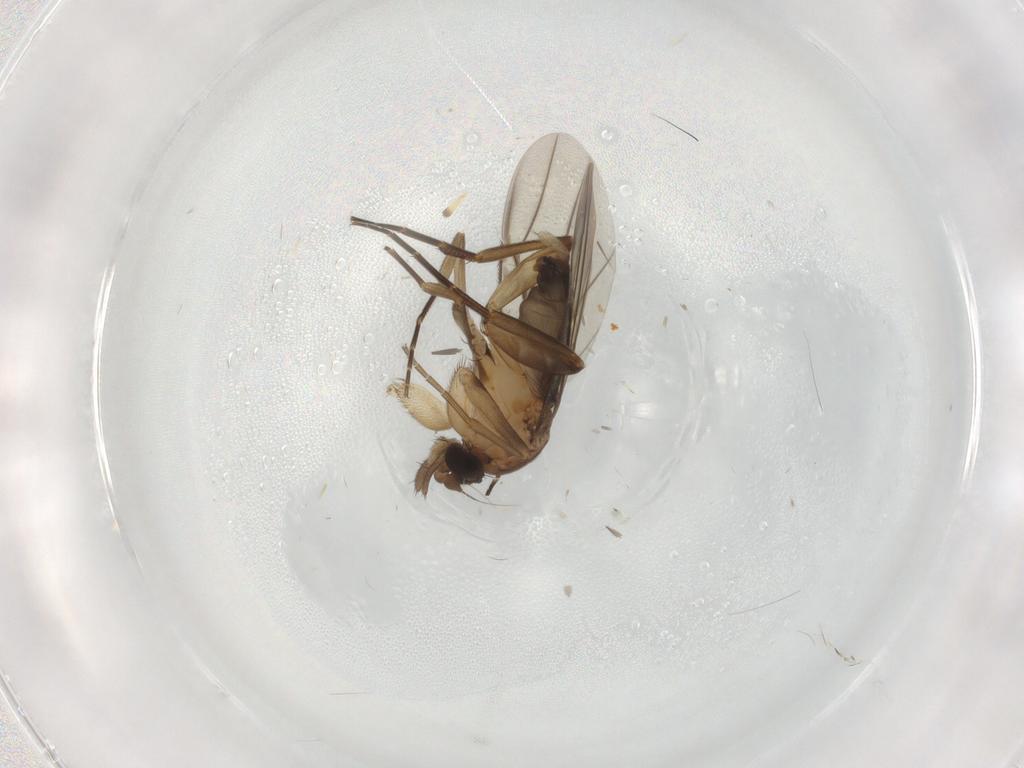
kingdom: Animalia
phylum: Arthropoda
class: Insecta
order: Diptera
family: Phoridae
